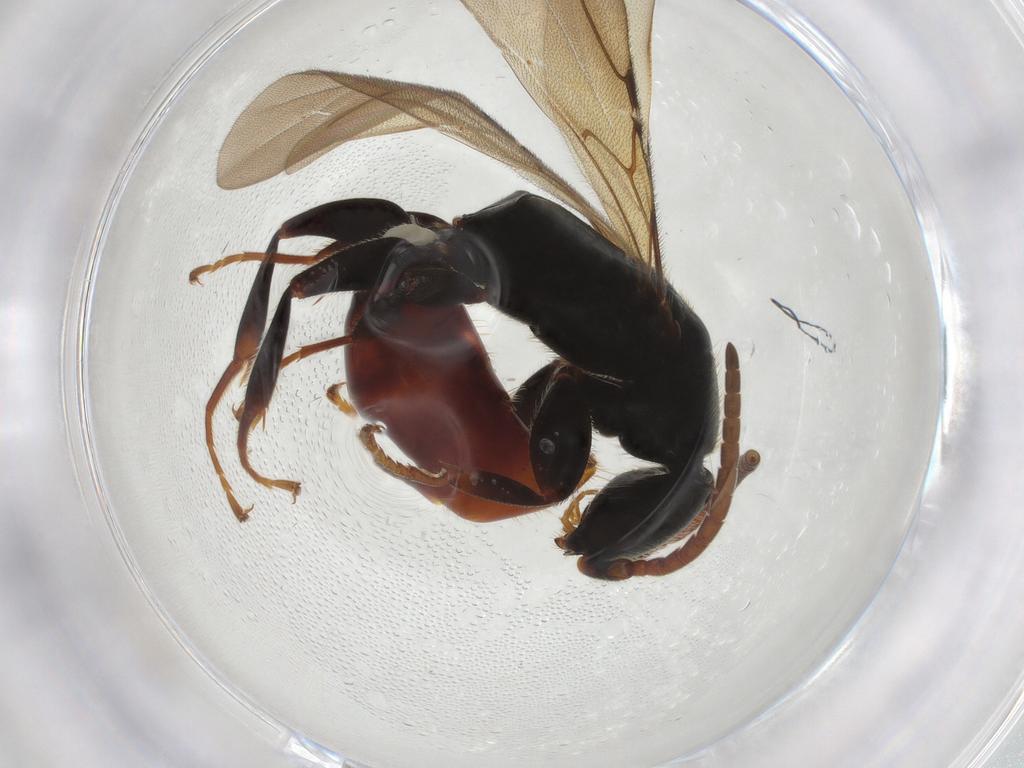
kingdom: Animalia
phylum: Arthropoda
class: Insecta
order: Hymenoptera
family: Bethylidae
